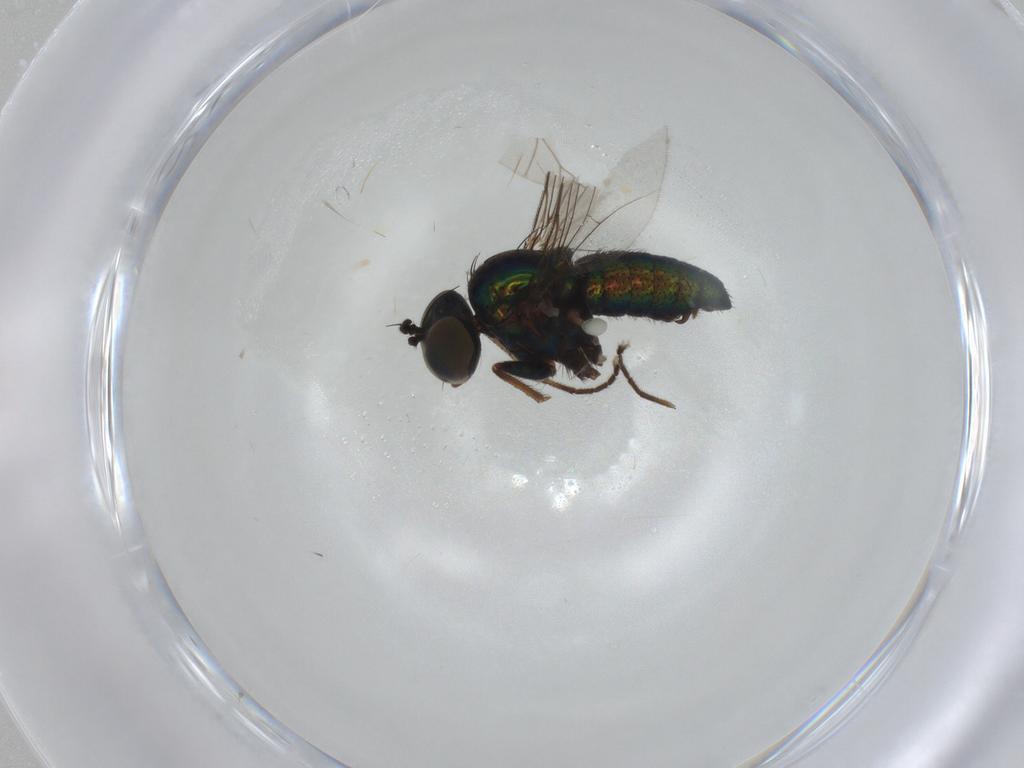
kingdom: Animalia
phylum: Arthropoda
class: Insecta
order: Diptera
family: Dolichopodidae
